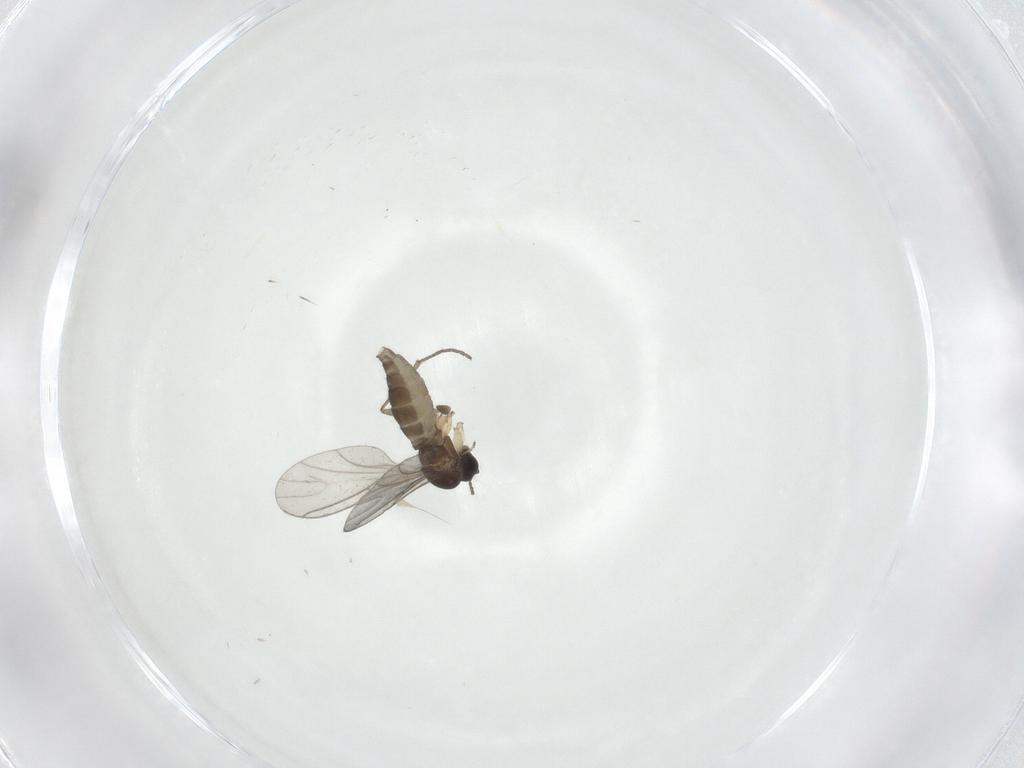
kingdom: Animalia
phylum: Arthropoda
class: Insecta
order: Diptera
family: Sciaridae
